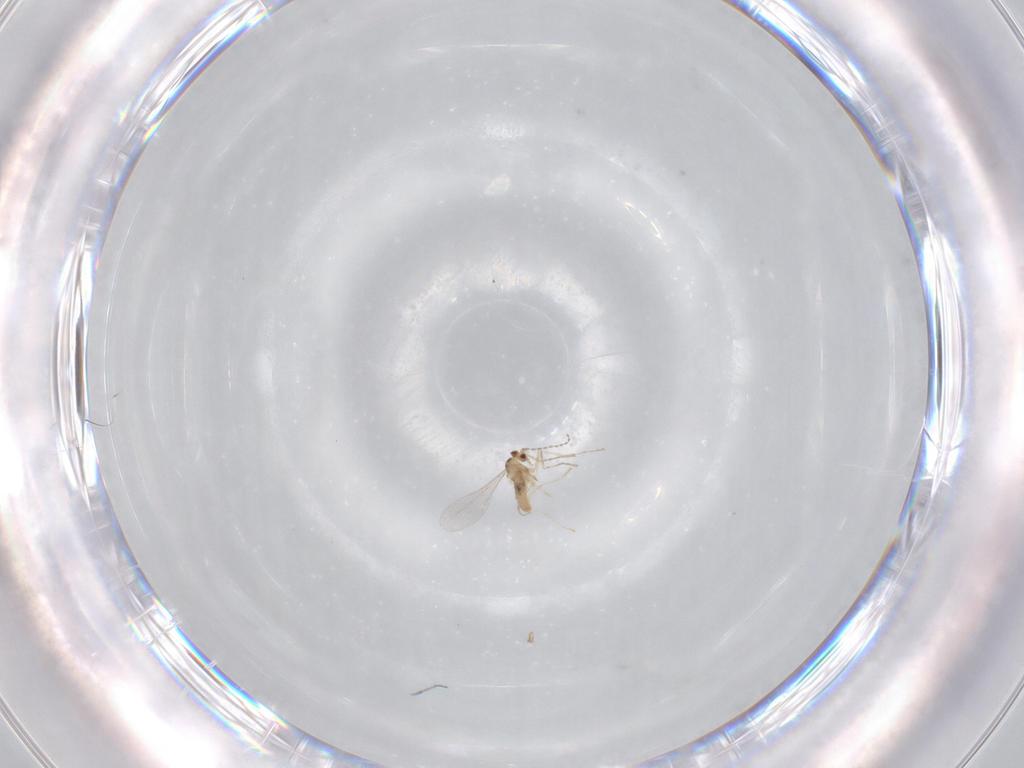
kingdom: Animalia
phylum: Arthropoda
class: Insecta
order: Diptera
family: Cecidomyiidae
